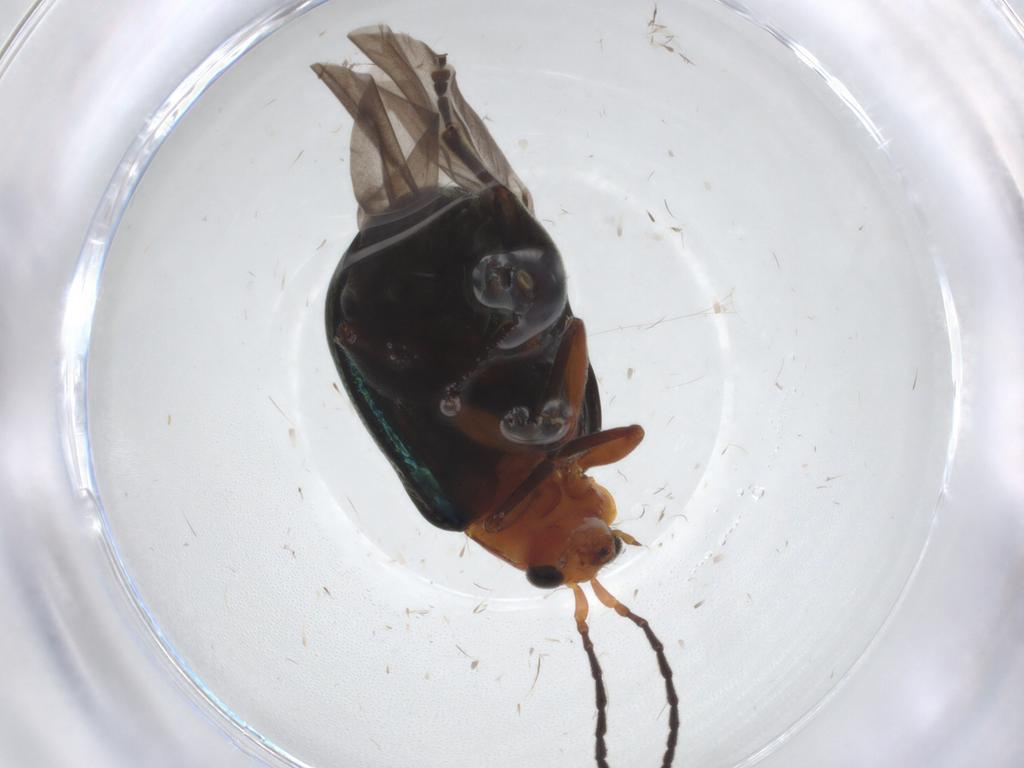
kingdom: Animalia
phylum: Arthropoda
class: Insecta
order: Coleoptera
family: Chrysomelidae
